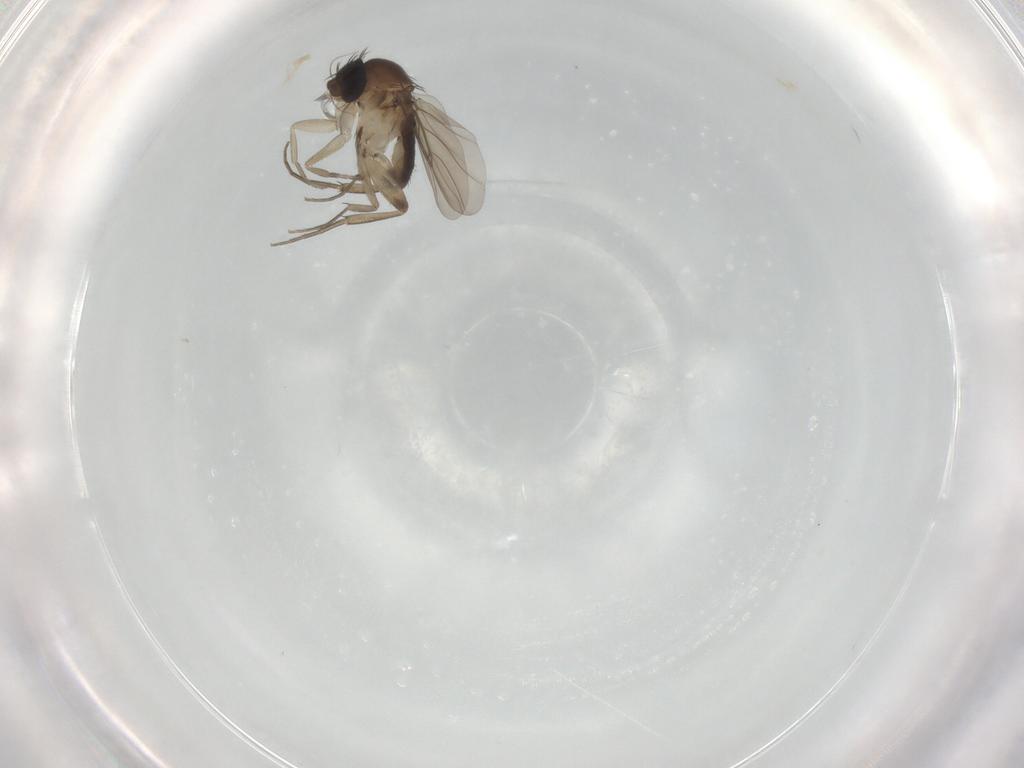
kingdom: Animalia
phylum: Arthropoda
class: Insecta
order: Diptera
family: Phoridae
